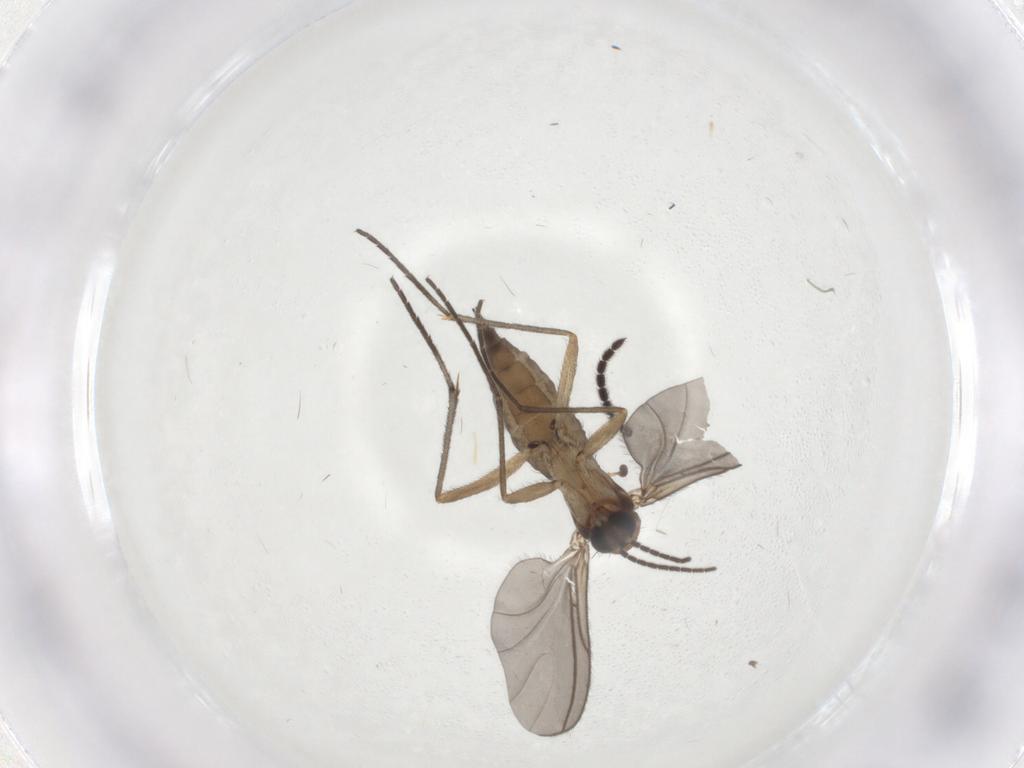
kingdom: Animalia
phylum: Arthropoda
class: Insecta
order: Diptera
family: Sciaridae
